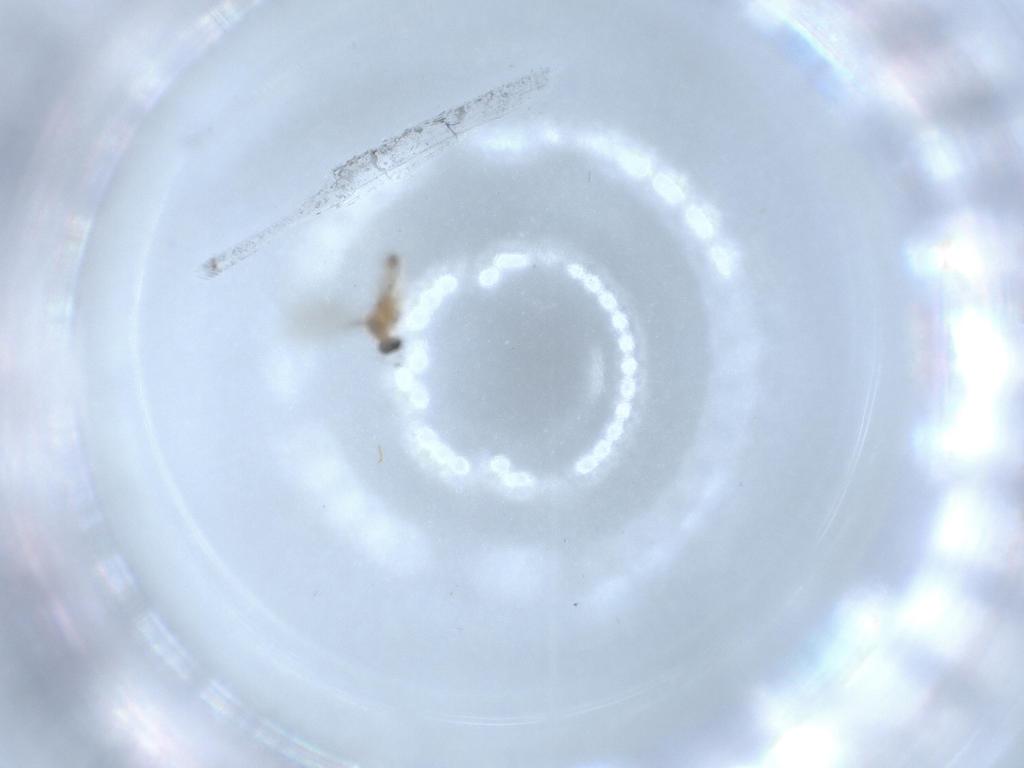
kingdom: Animalia
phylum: Arthropoda
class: Insecta
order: Diptera
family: Cecidomyiidae
